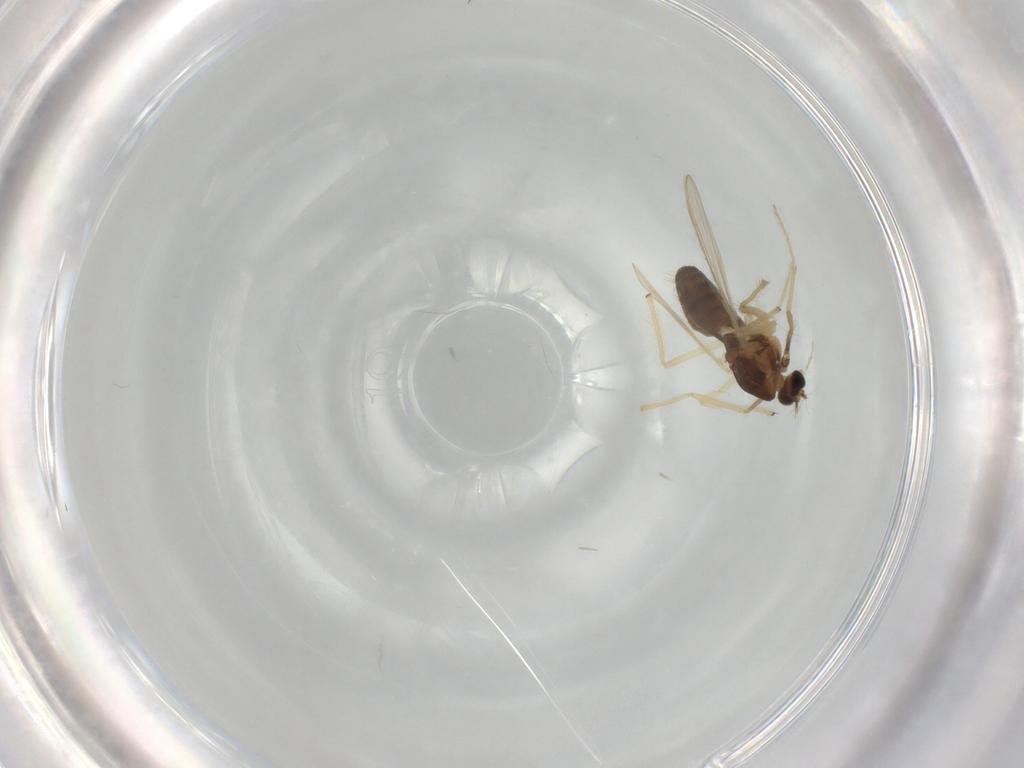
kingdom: Animalia
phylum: Arthropoda
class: Insecta
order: Diptera
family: Chironomidae
